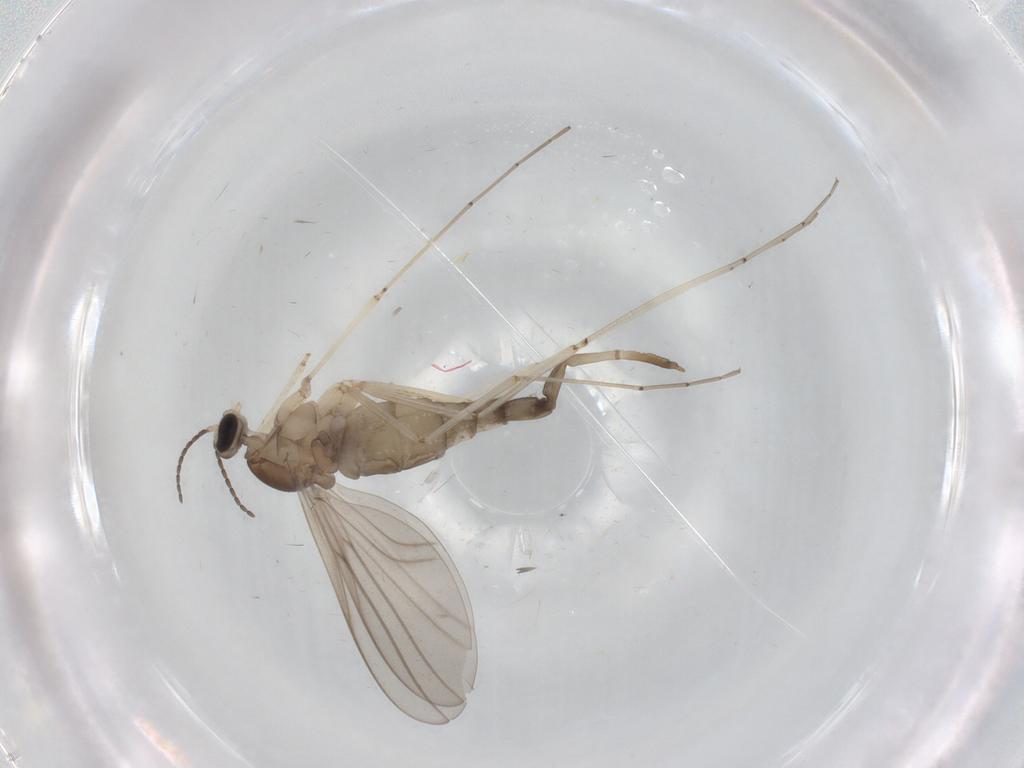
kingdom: Animalia
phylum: Arthropoda
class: Insecta
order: Diptera
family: Cecidomyiidae
